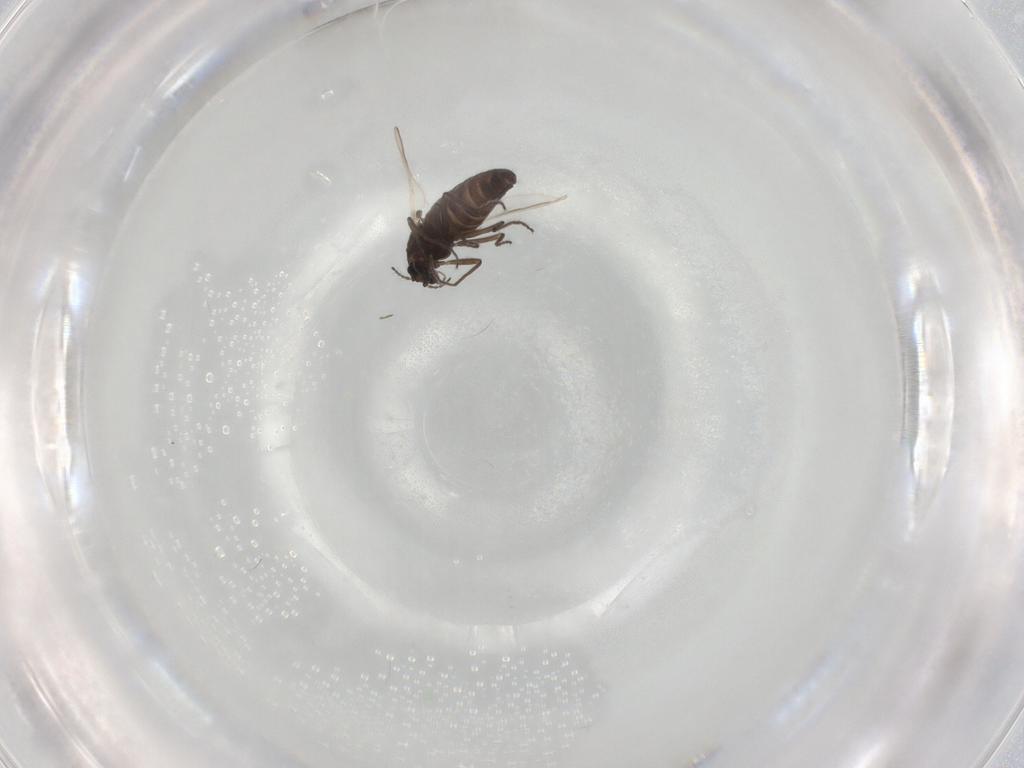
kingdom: Animalia
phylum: Arthropoda
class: Insecta
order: Diptera
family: Chironomidae
